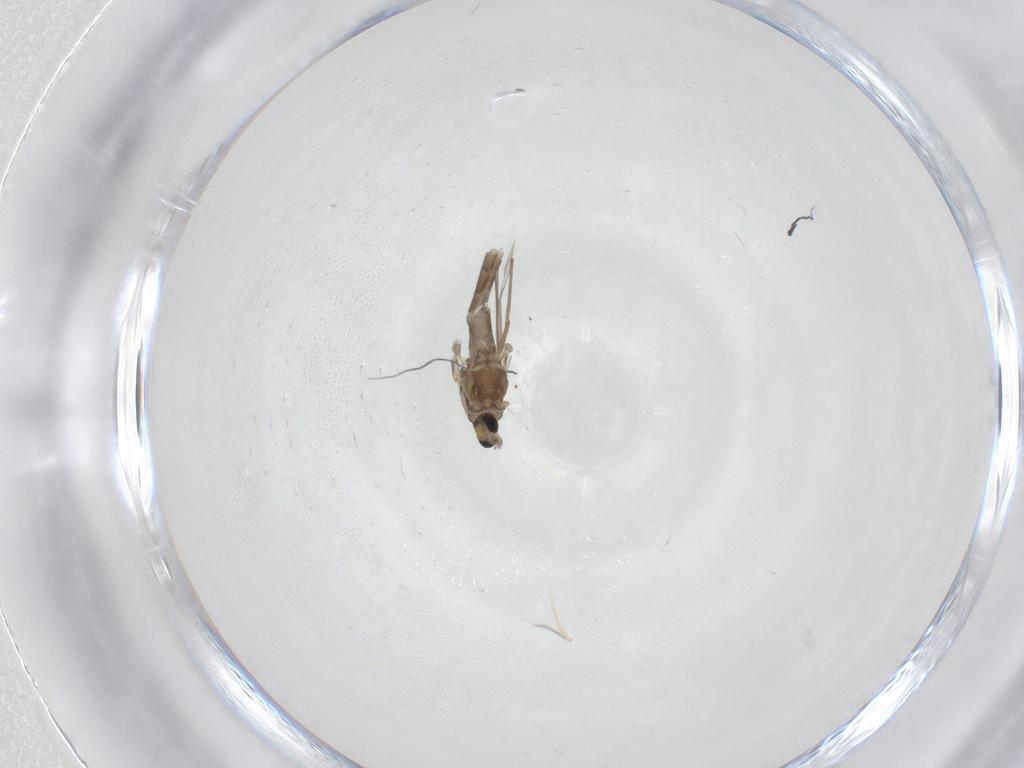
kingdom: Animalia
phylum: Arthropoda
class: Insecta
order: Diptera
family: Chironomidae
